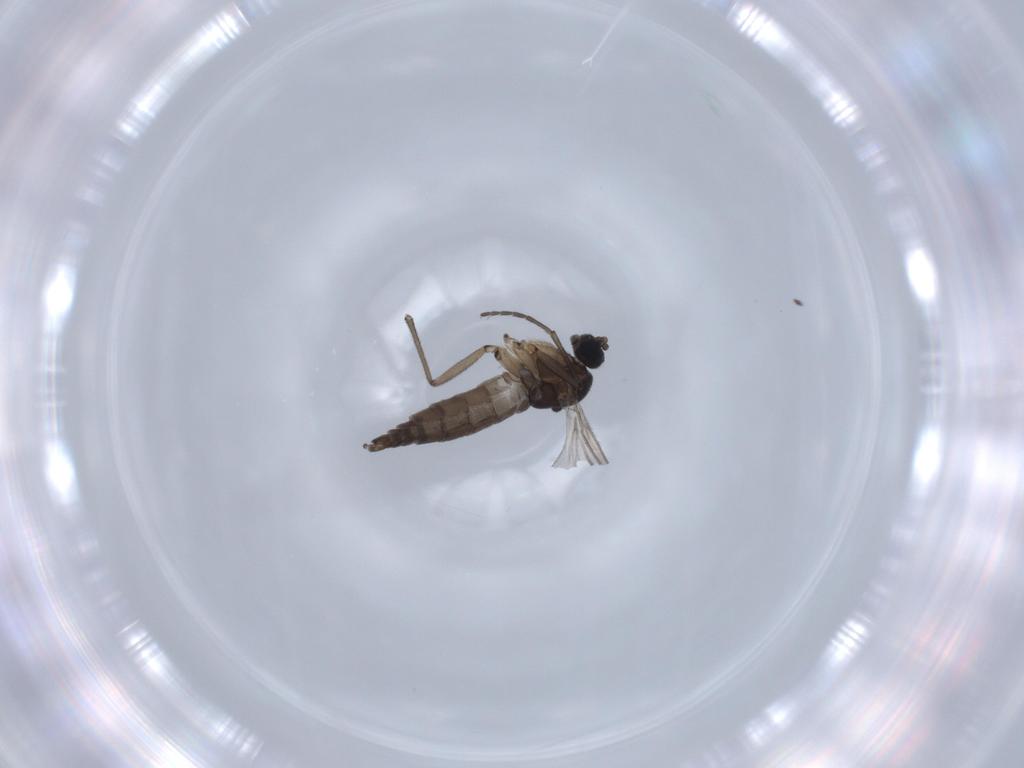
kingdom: Animalia
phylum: Arthropoda
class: Insecta
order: Diptera
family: Sciaridae
